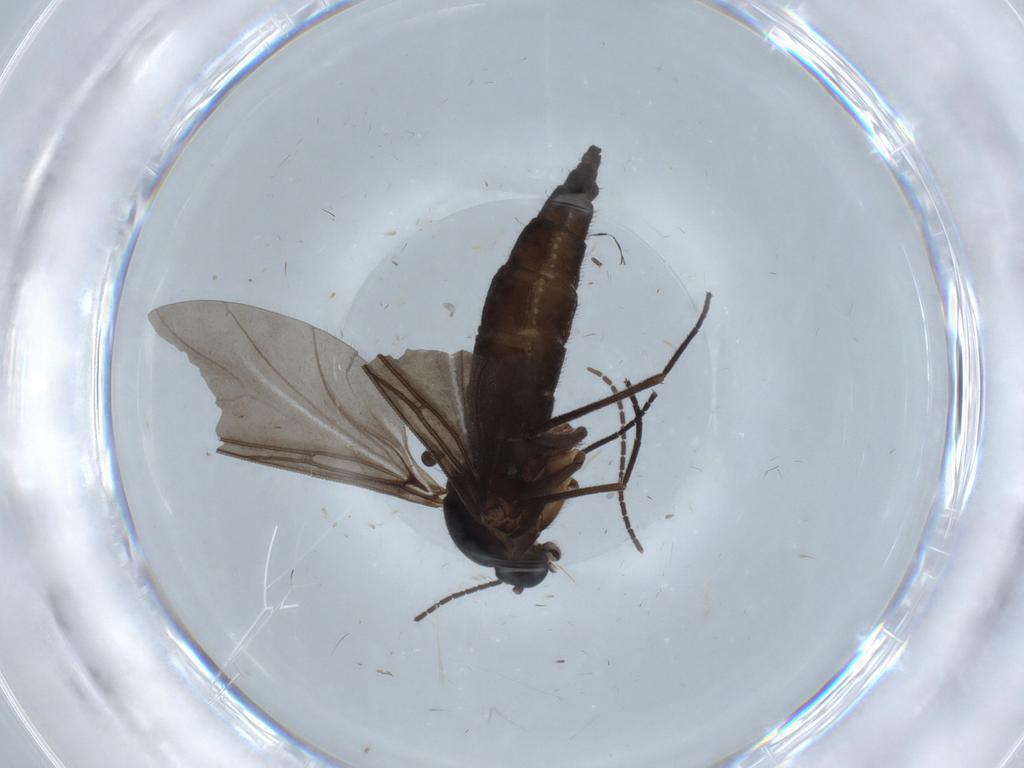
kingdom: Animalia
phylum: Arthropoda
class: Insecta
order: Diptera
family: Sciaridae
